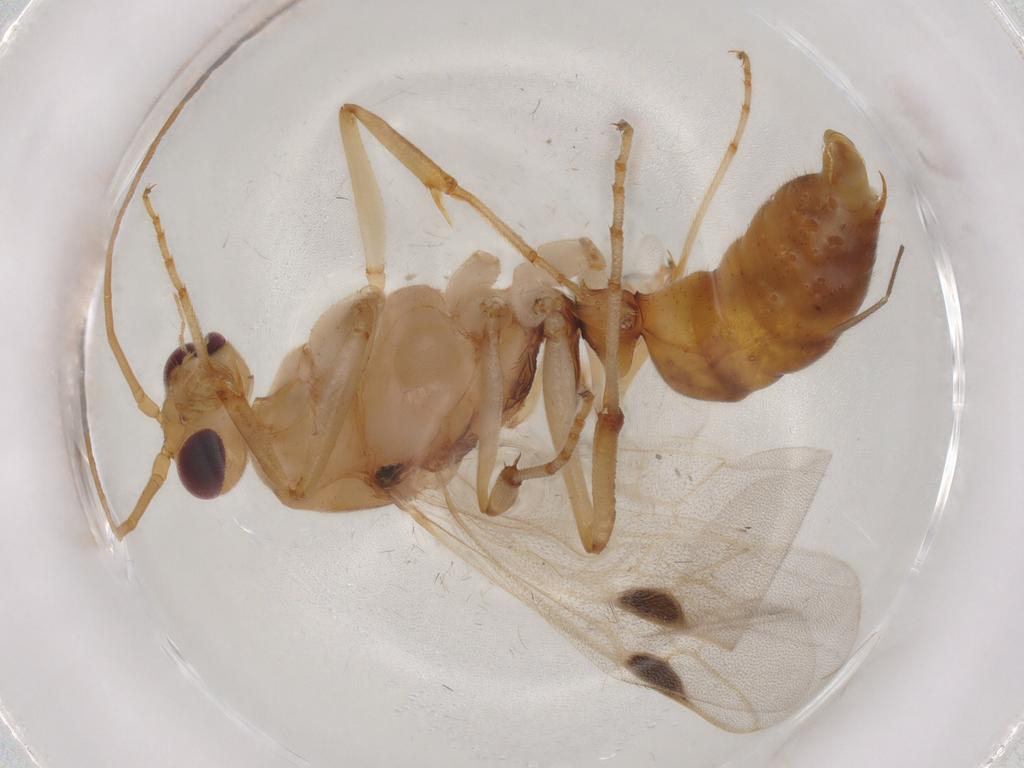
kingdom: Animalia
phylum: Arthropoda
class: Insecta
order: Hymenoptera
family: Formicidae
